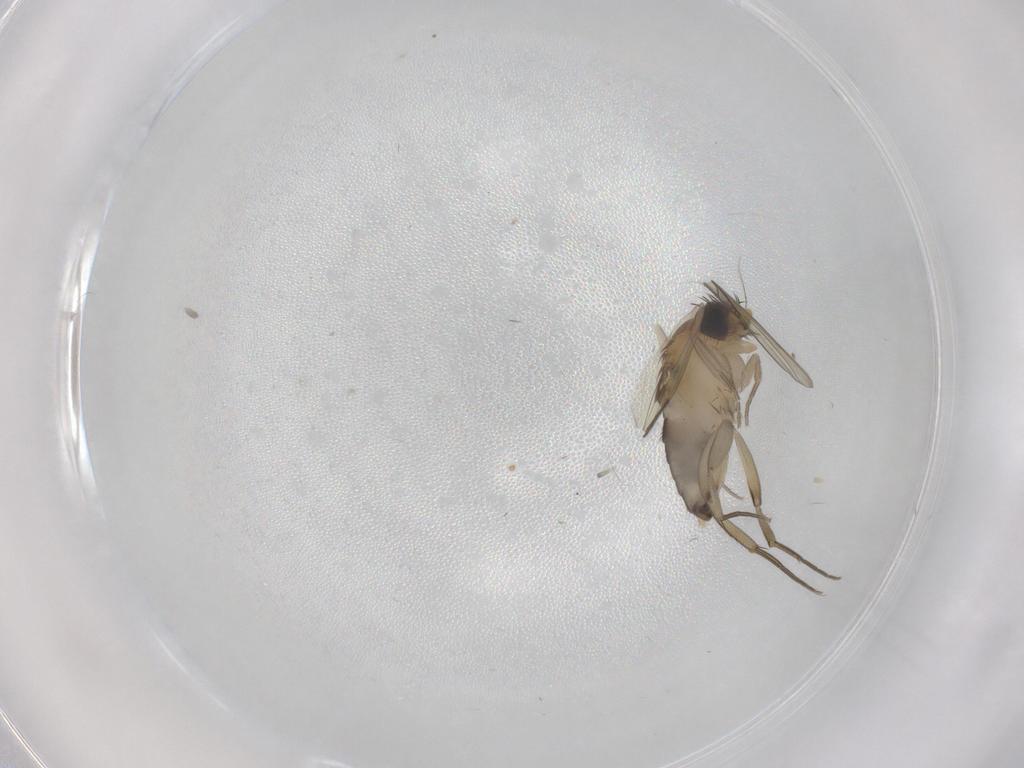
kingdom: Animalia
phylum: Arthropoda
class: Insecta
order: Diptera
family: Phoridae
